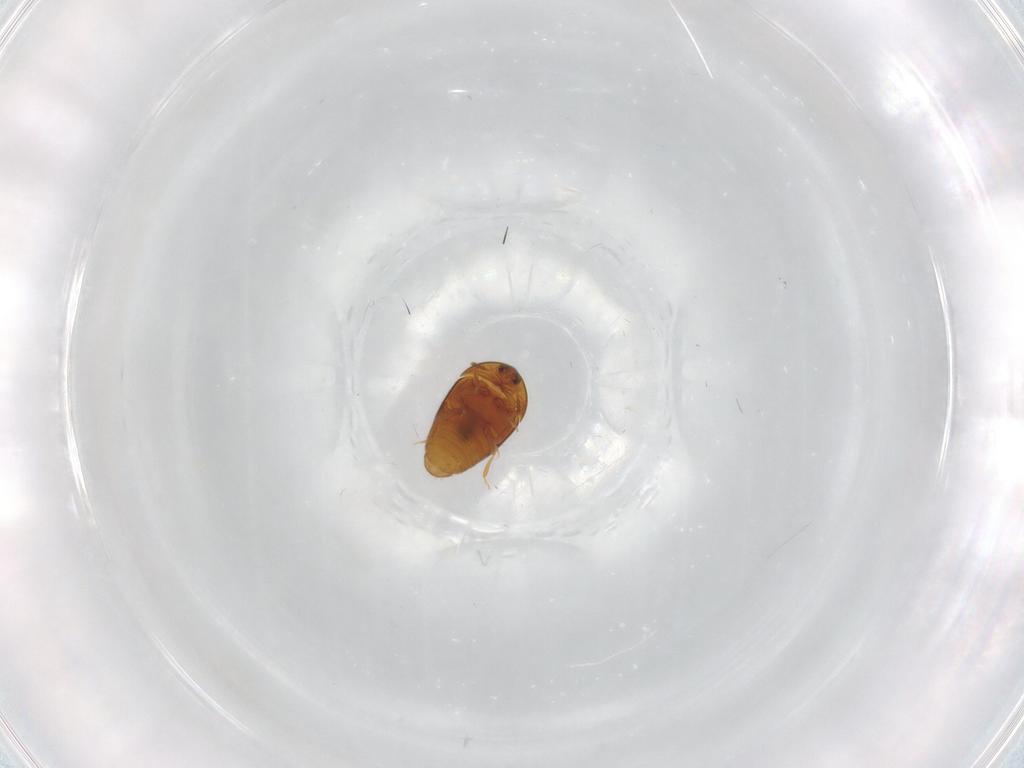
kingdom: Animalia
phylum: Arthropoda
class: Insecta
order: Coleoptera
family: Corylophidae
